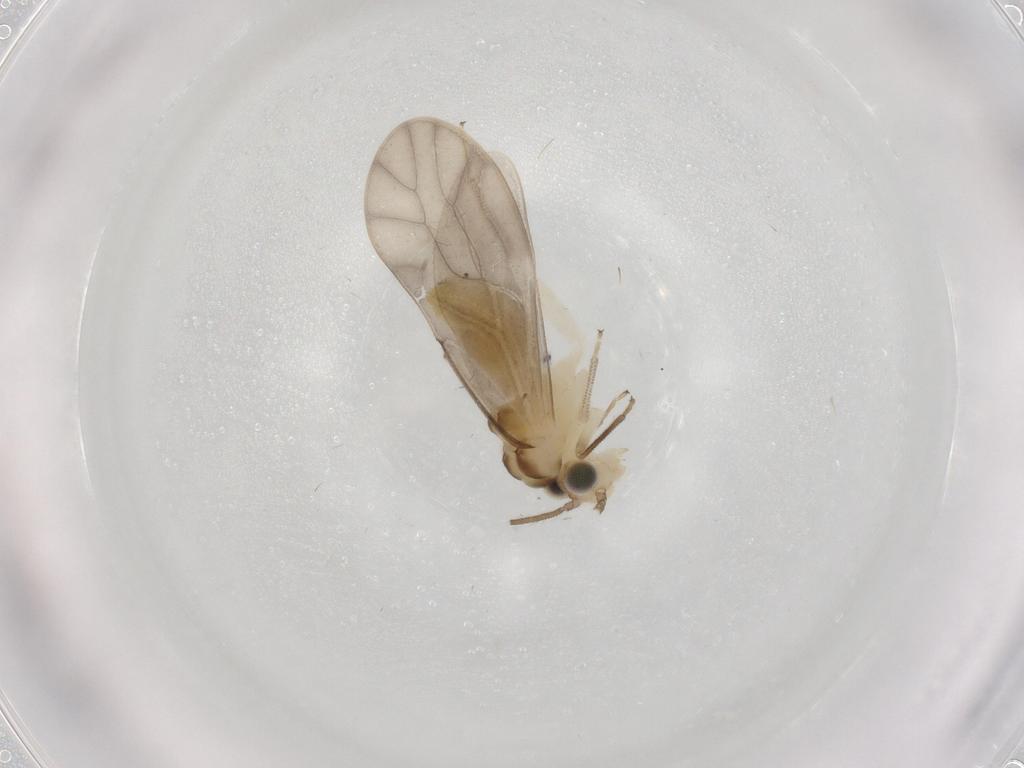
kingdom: Animalia
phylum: Arthropoda
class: Insecta
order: Psocodea
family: Caeciliusidae
